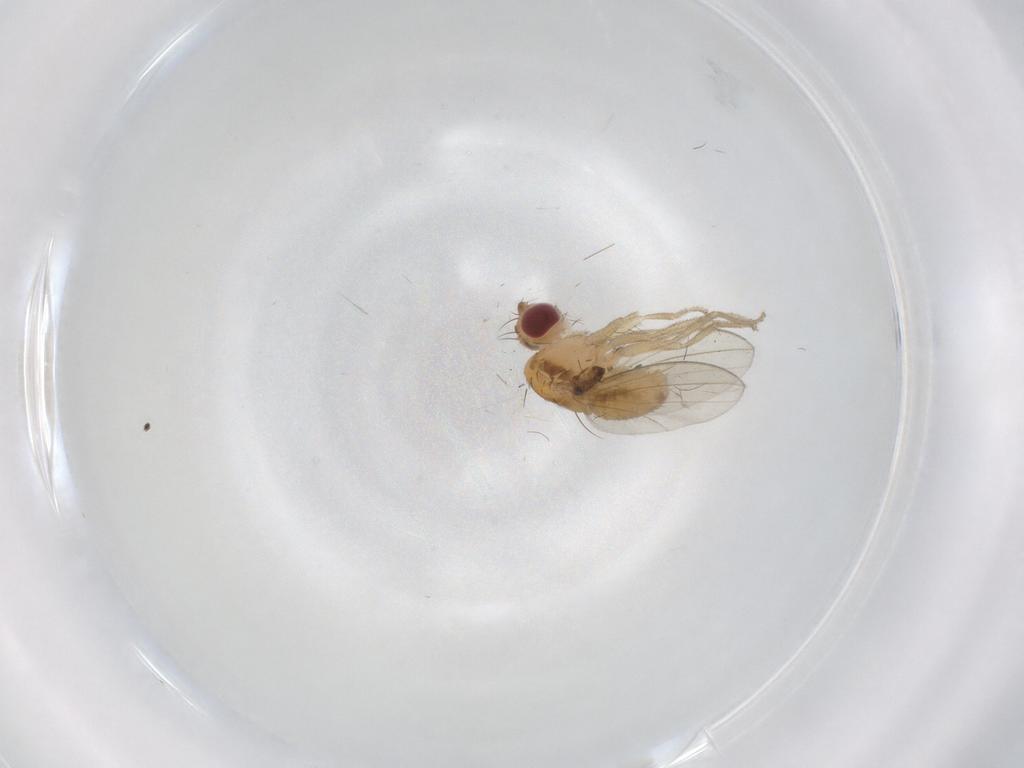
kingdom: Animalia
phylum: Arthropoda
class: Insecta
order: Diptera
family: Drosophilidae
